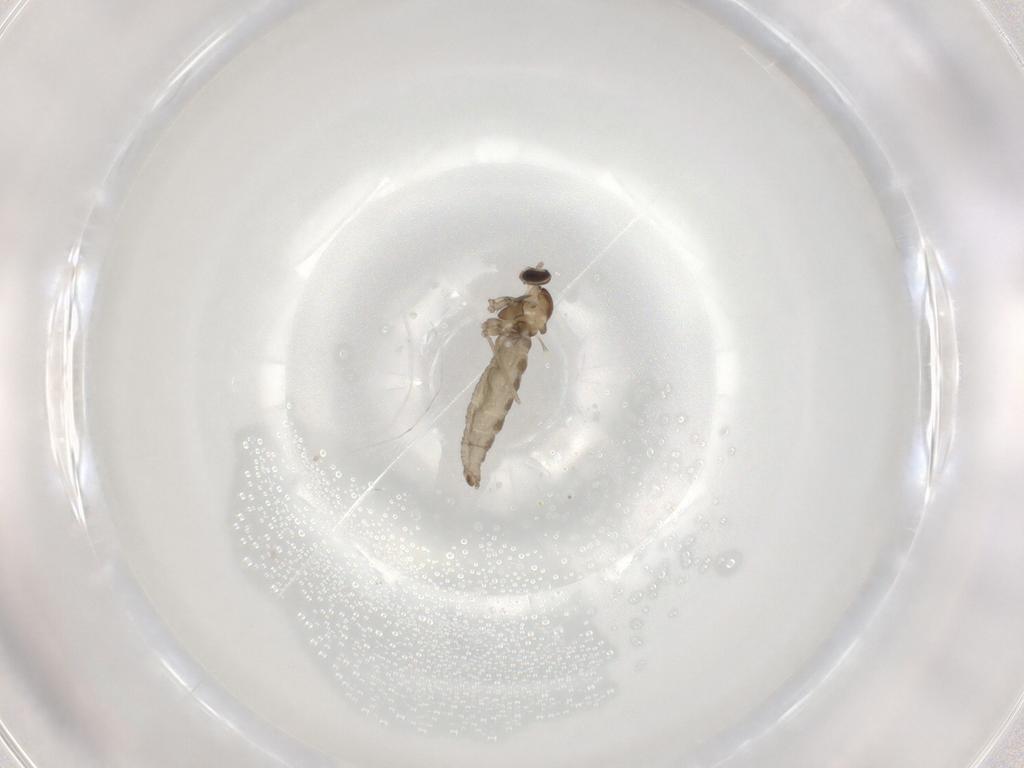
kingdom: Animalia
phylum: Arthropoda
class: Insecta
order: Diptera
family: Cecidomyiidae
